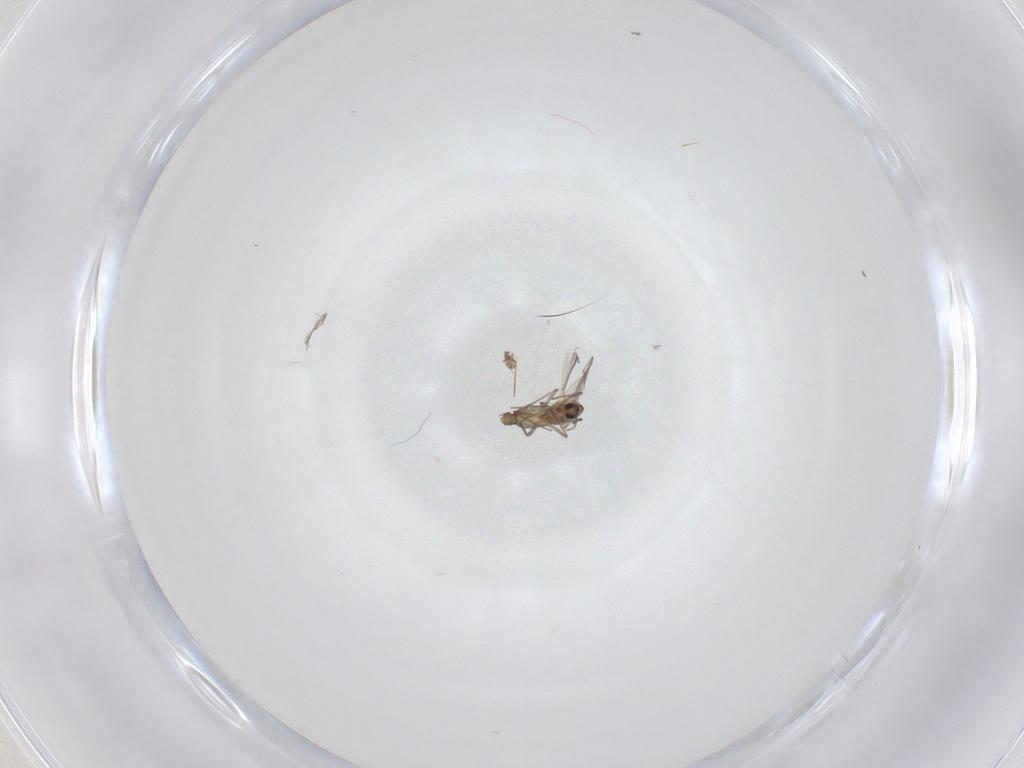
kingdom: Animalia
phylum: Arthropoda
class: Insecta
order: Diptera
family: Chironomidae
